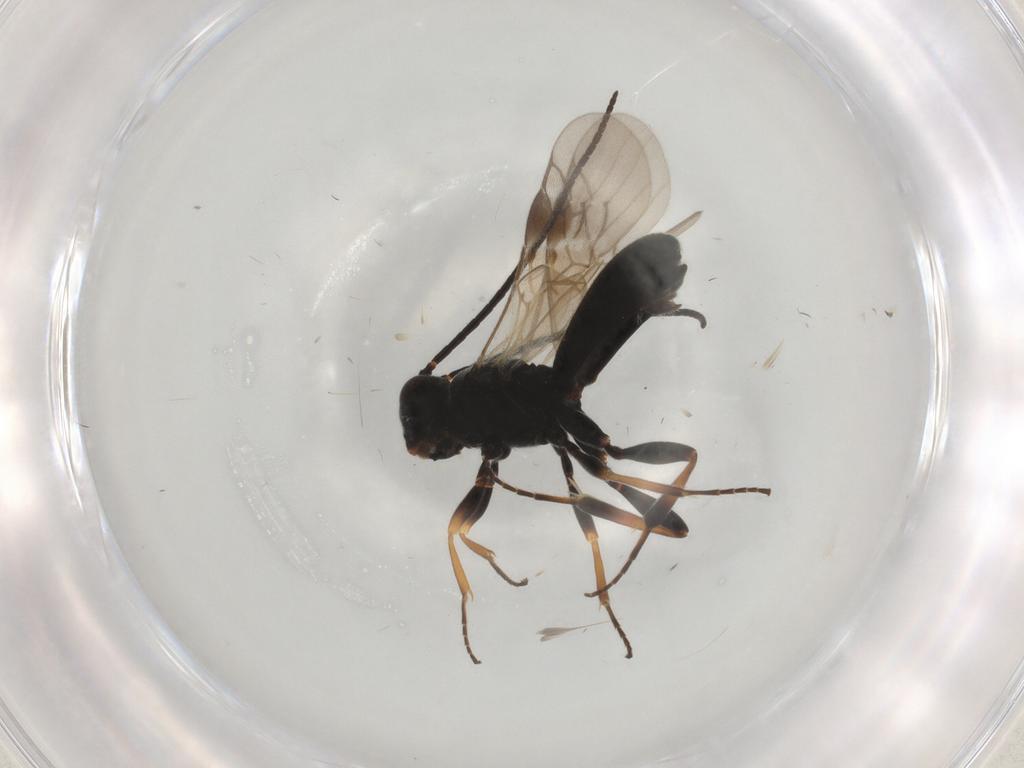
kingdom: Animalia
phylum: Arthropoda
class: Insecta
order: Hymenoptera
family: Braconidae
